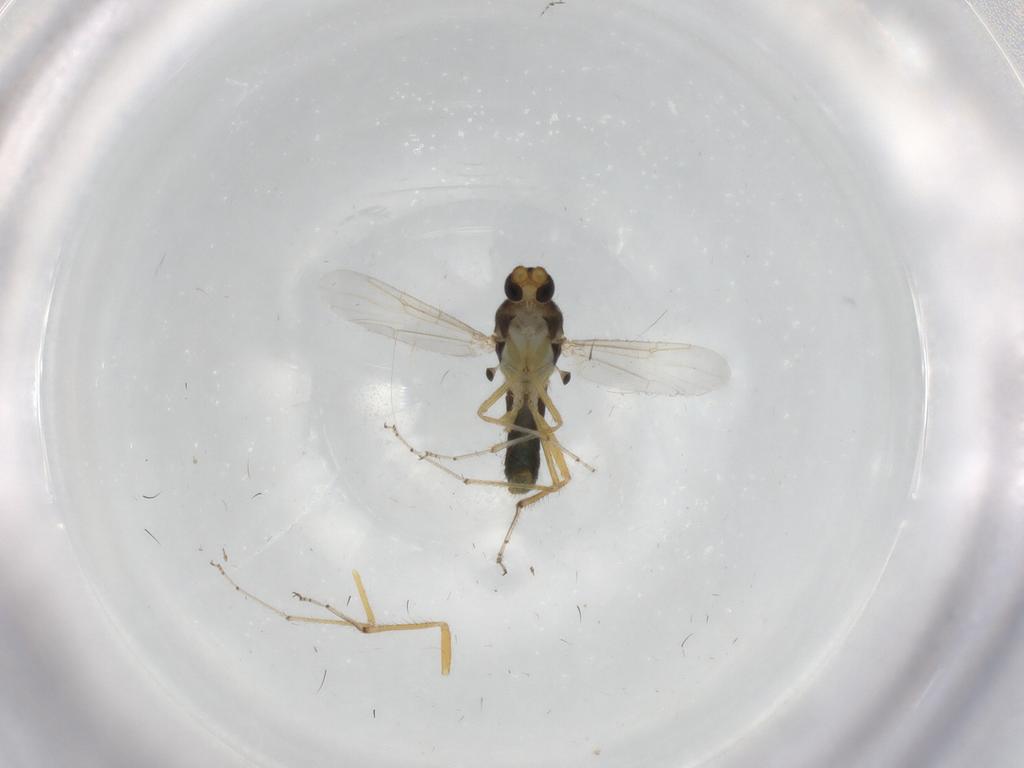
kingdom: Animalia
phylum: Arthropoda
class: Insecta
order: Diptera
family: Ceratopogonidae
